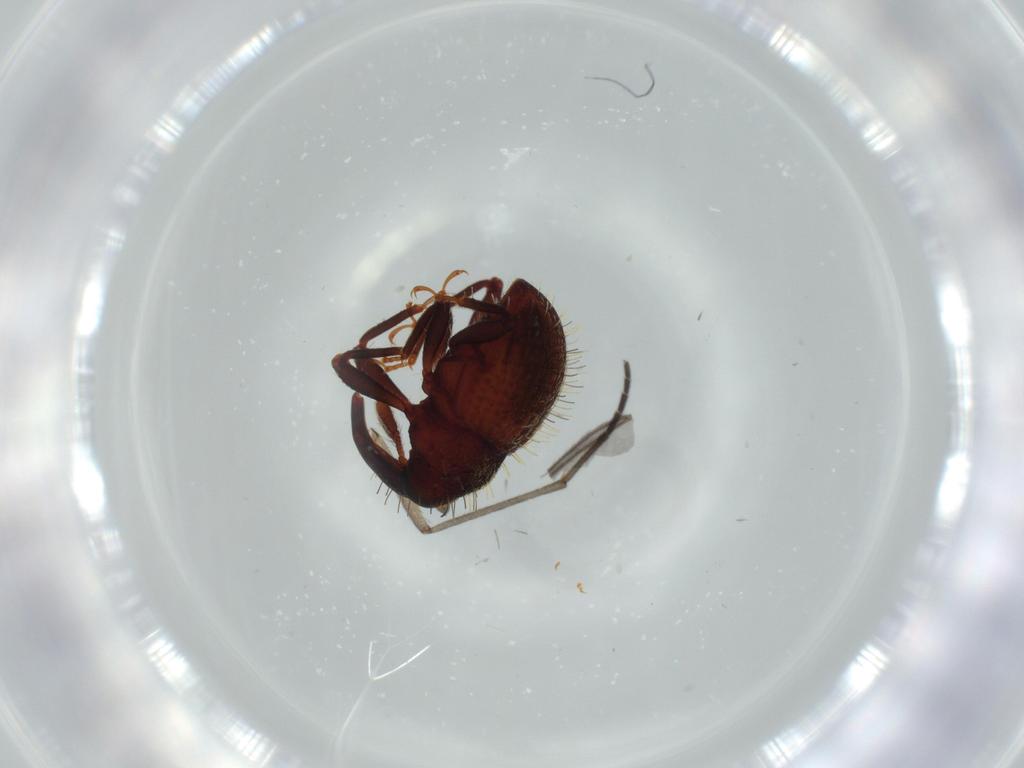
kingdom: Animalia
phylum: Arthropoda
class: Insecta
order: Coleoptera
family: Curculionidae
